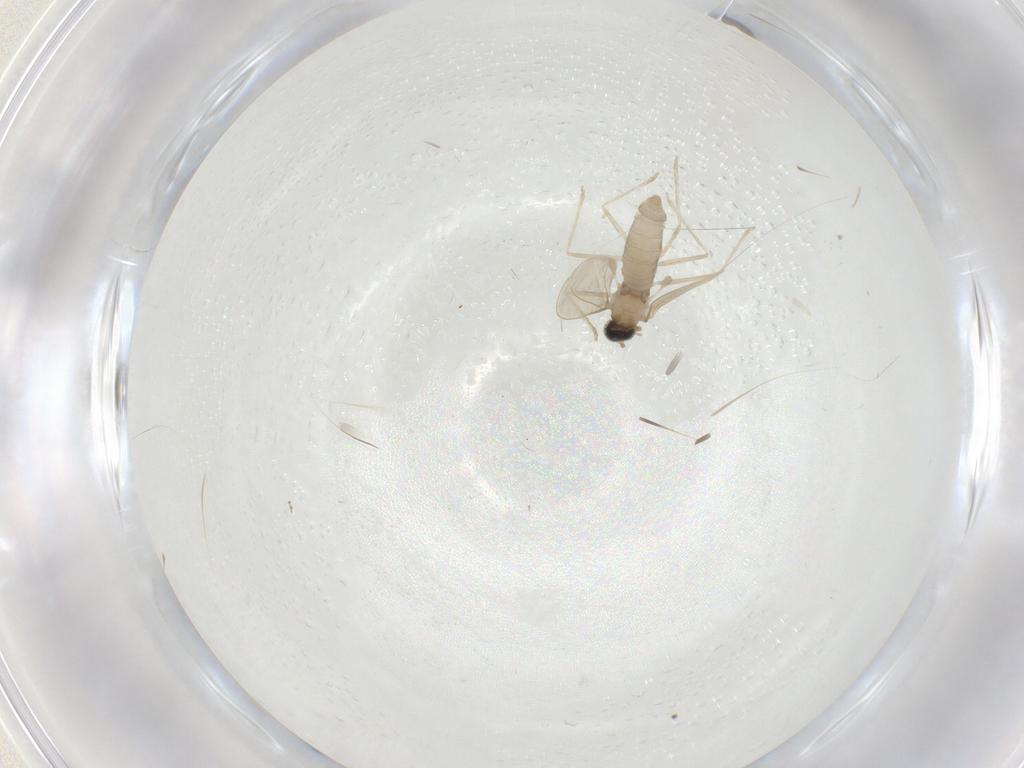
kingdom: Animalia
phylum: Arthropoda
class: Insecta
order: Diptera
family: Cecidomyiidae
